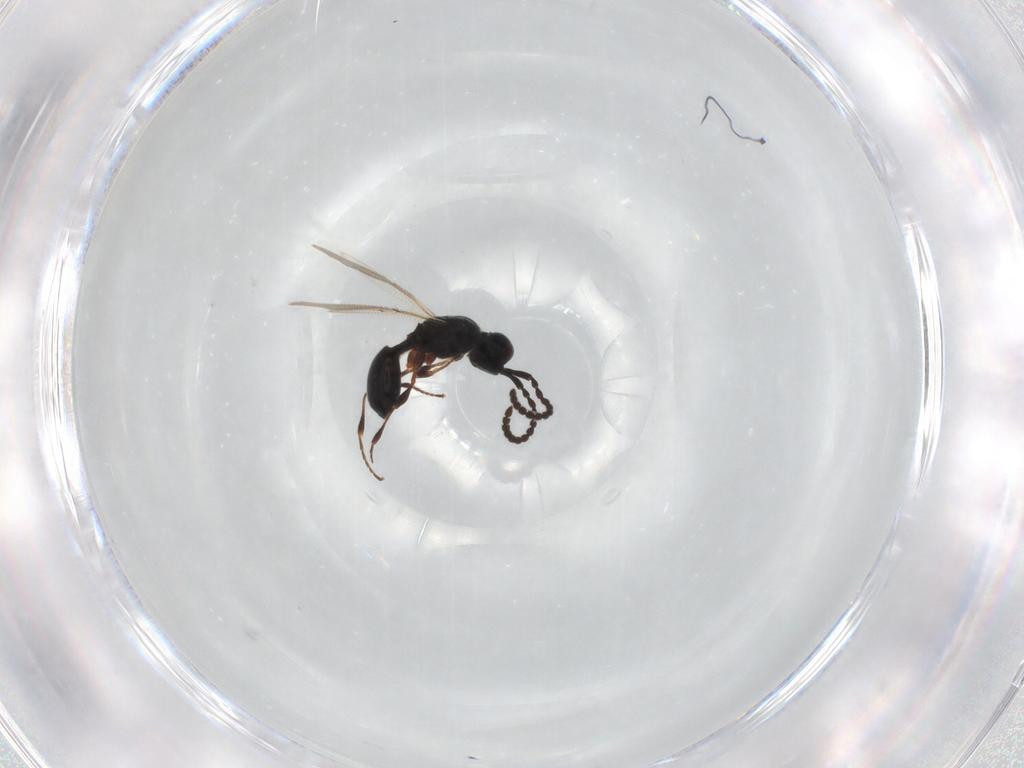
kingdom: Animalia
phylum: Arthropoda
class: Insecta
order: Hymenoptera
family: Diapriidae
